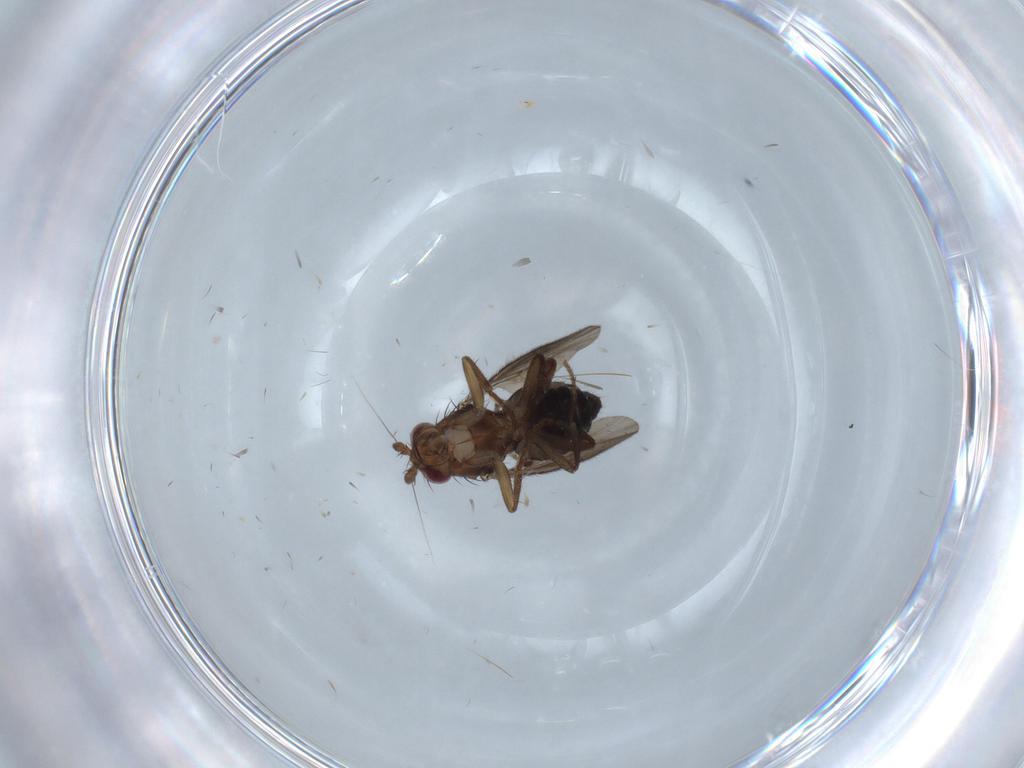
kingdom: Animalia
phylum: Arthropoda
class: Insecta
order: Diptera
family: Sphaeroceridae
